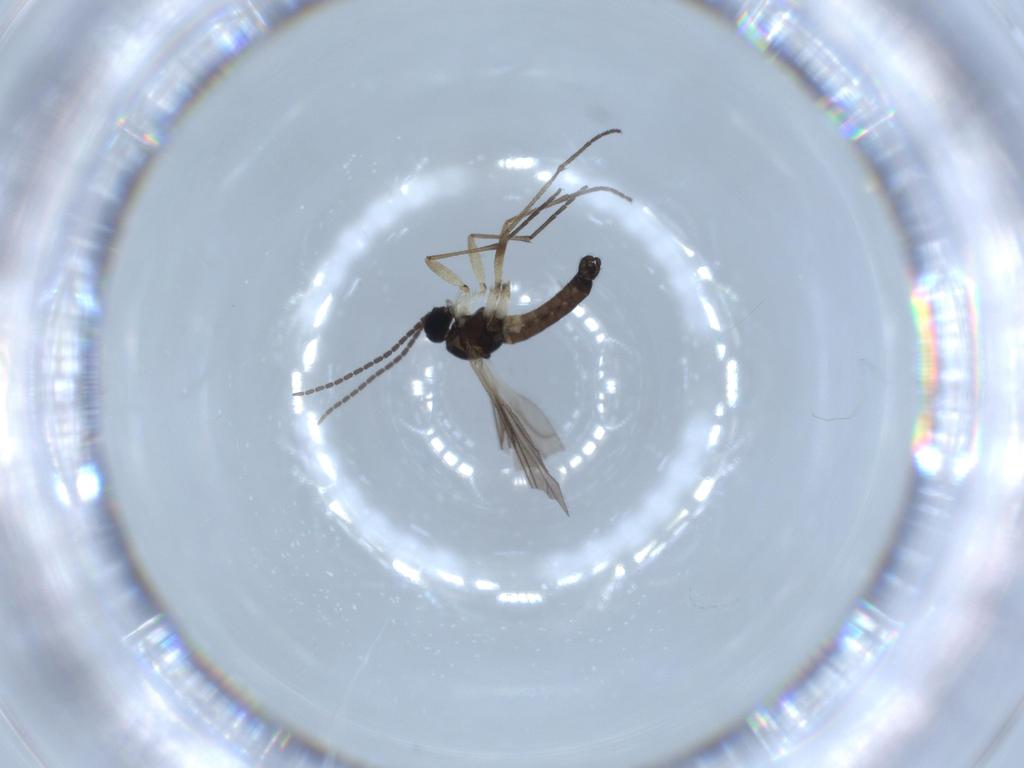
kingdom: Animalia
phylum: Arthropoda
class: Insecta
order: Diptera
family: Sciaridae
